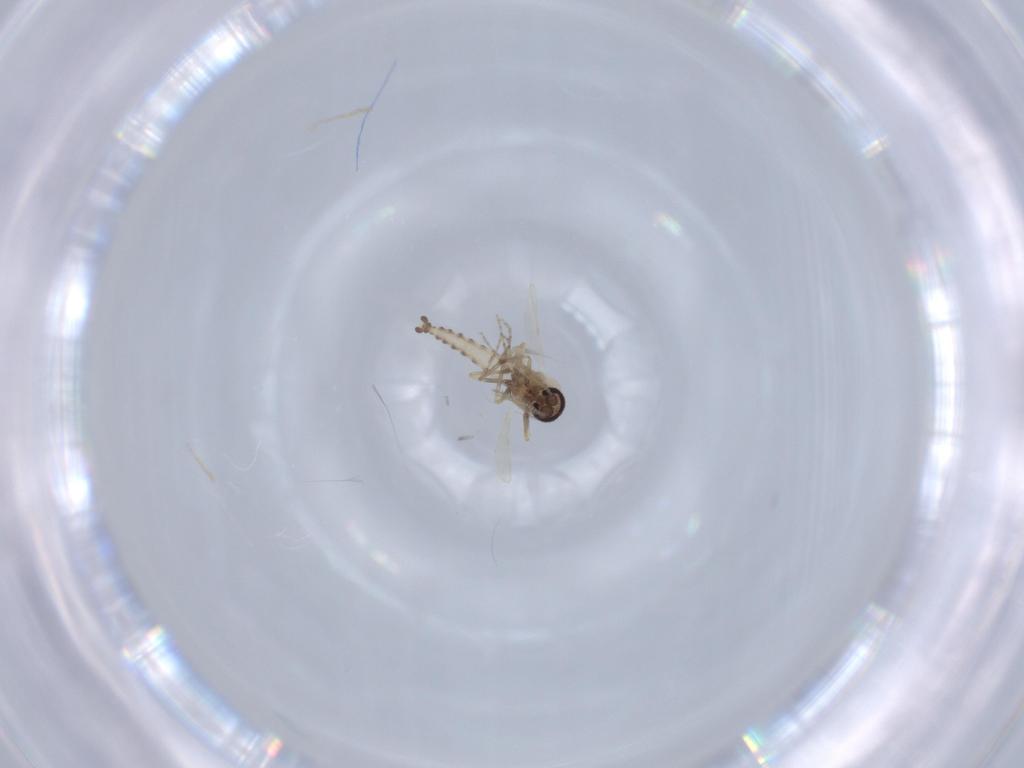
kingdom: Animalia
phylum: Arthropoda
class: Insecta
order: Diptera
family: Ceratopogonidae
